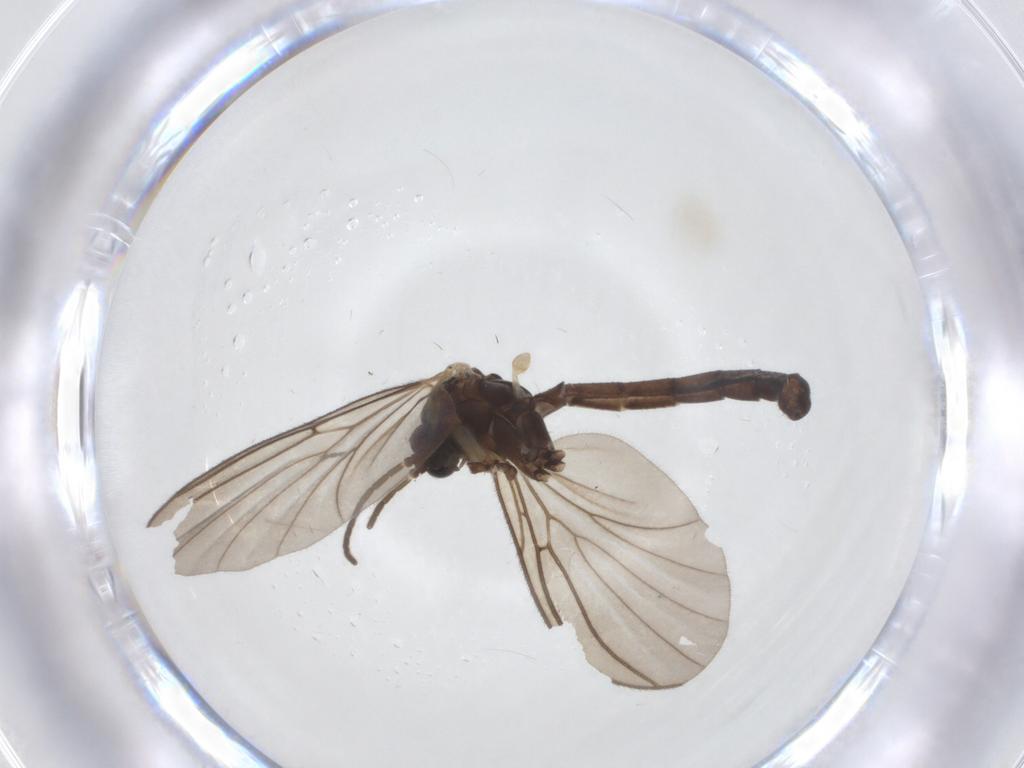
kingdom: Animalia
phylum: Arthropoda
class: Insecta
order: Diptera
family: Mycetophilidae
